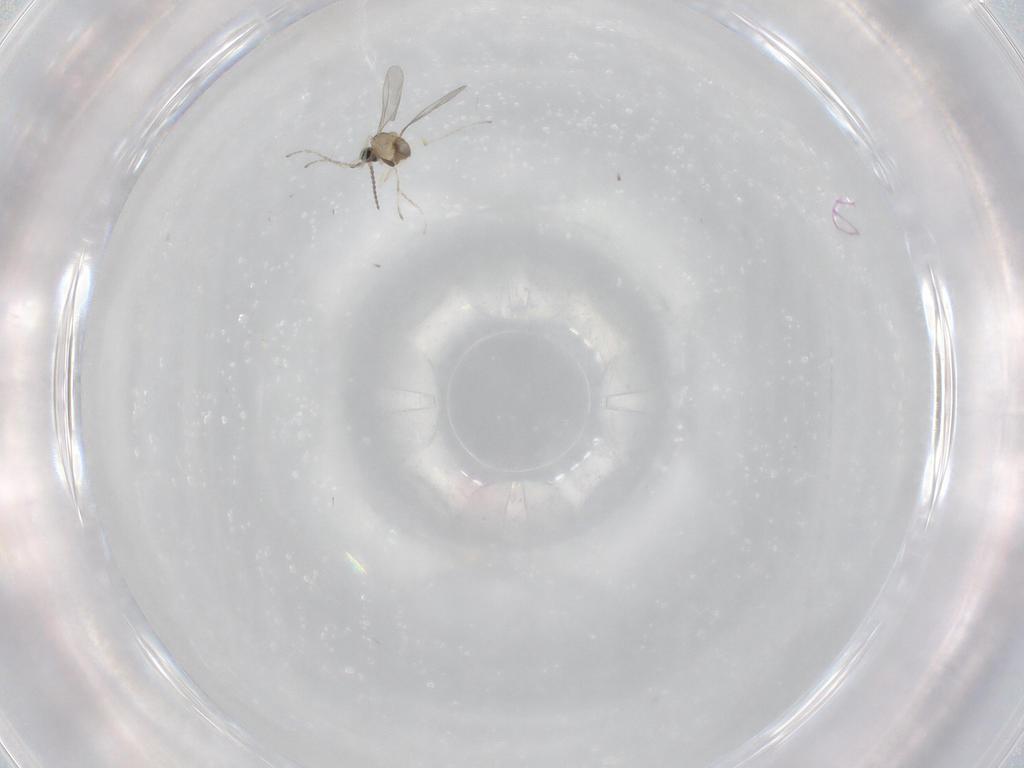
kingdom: Animalia
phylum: Arthropoda
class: Insecta
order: Diptera
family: Cecidomyiidae
